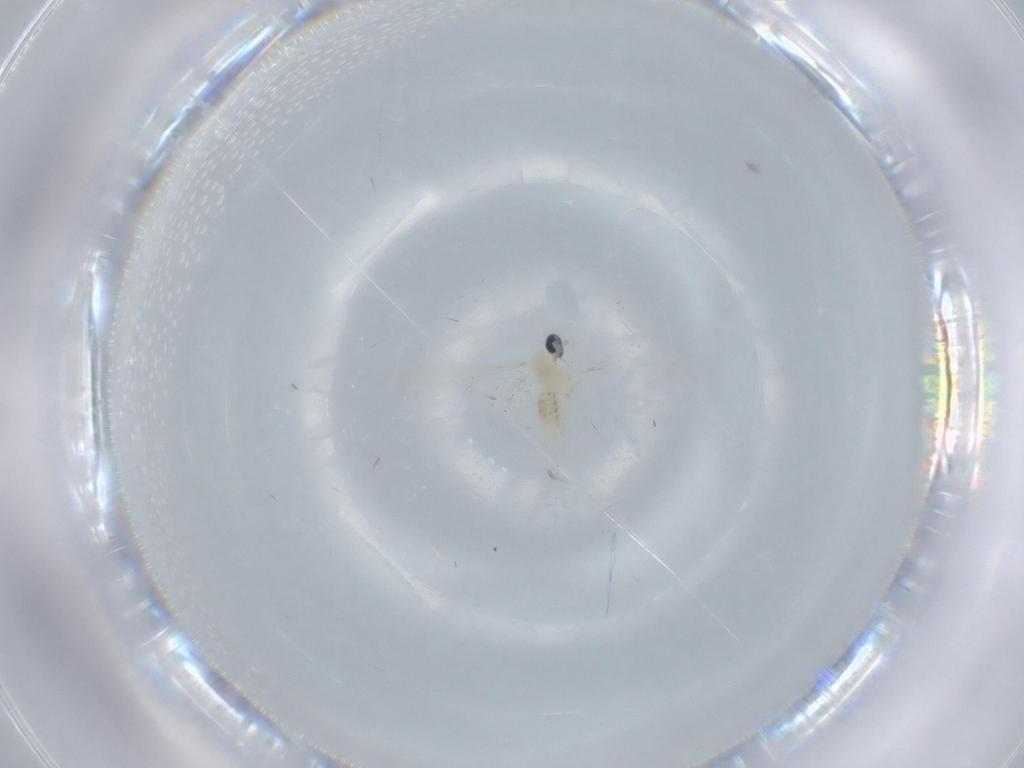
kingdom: Animalia
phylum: Arthropoda
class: Insecta
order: Diptera
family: Cecidomyiidae
